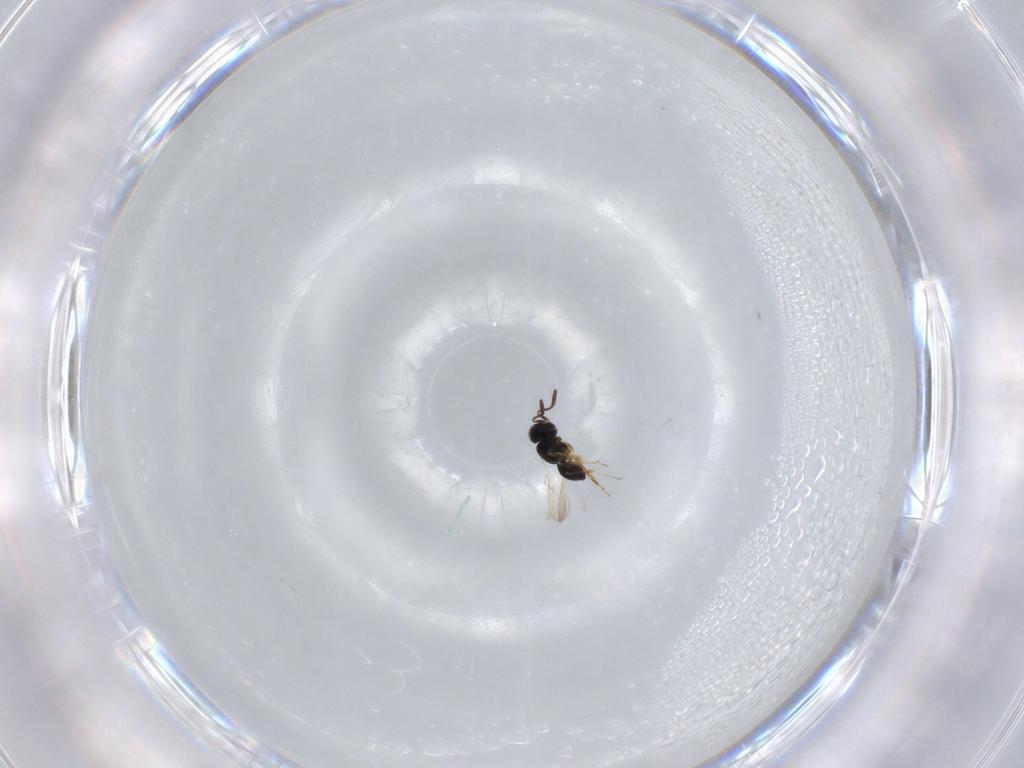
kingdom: Animalia
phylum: Arthropoda
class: Insecta
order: Hymenoptera
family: Scelionidae
